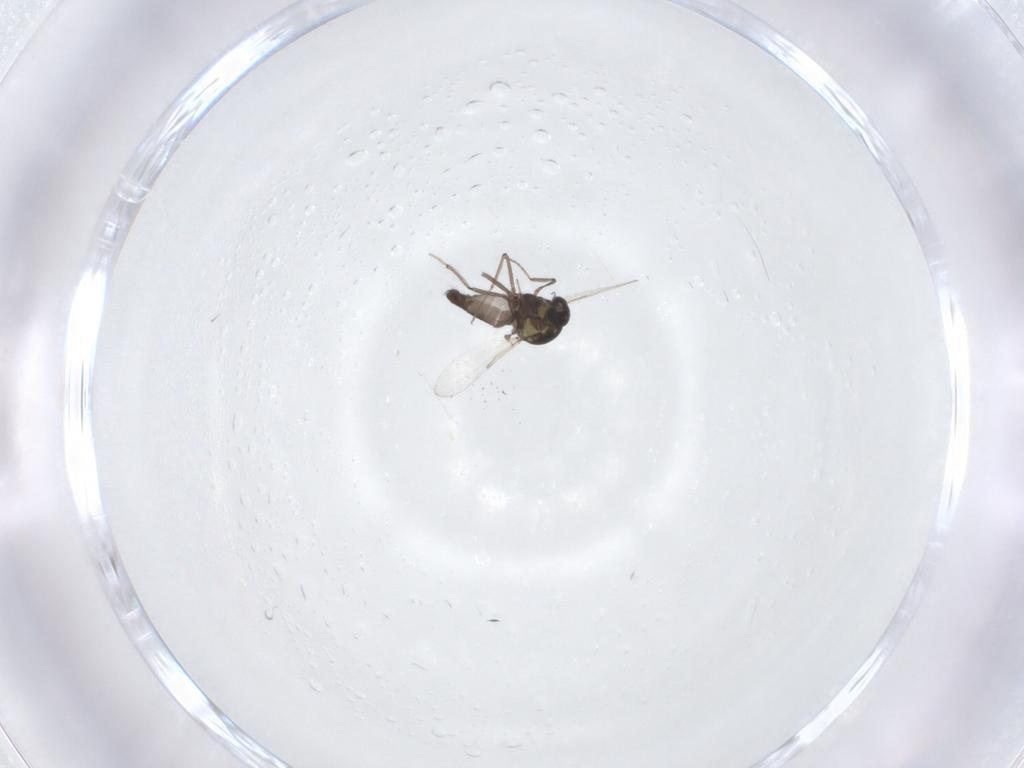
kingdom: Animalia
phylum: Arthropoda
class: Insecta
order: Diptera
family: Ceratopogonidae
